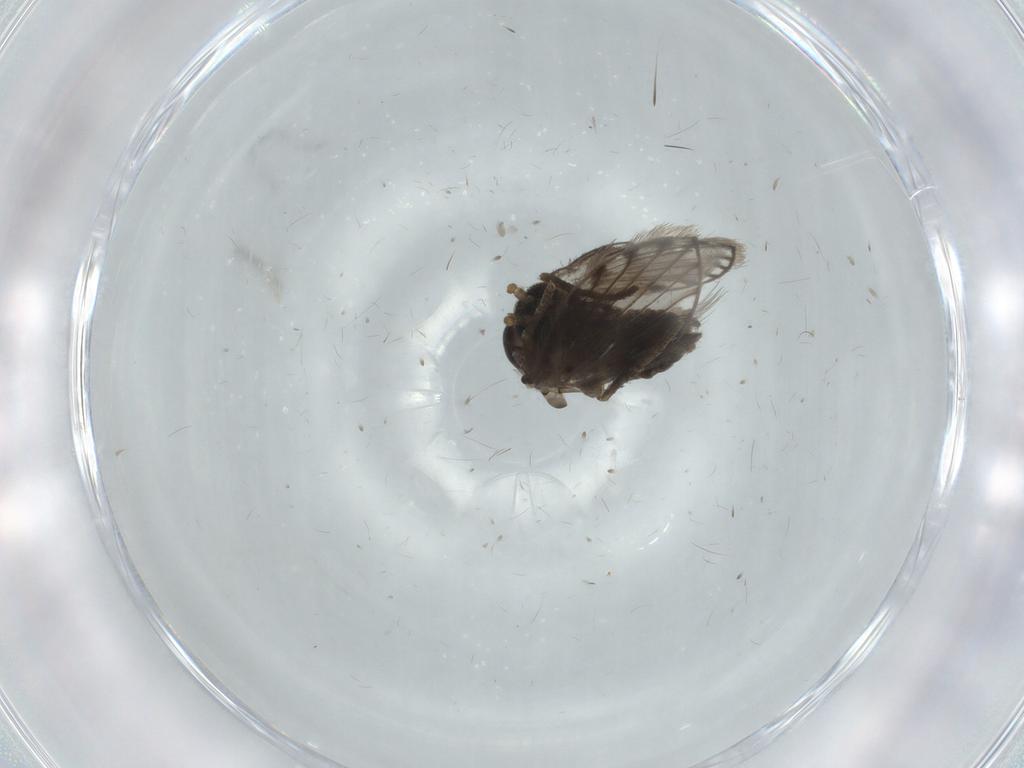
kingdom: Animalia
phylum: Arthropoda
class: Insecta
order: Diptera
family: Psychodidae
